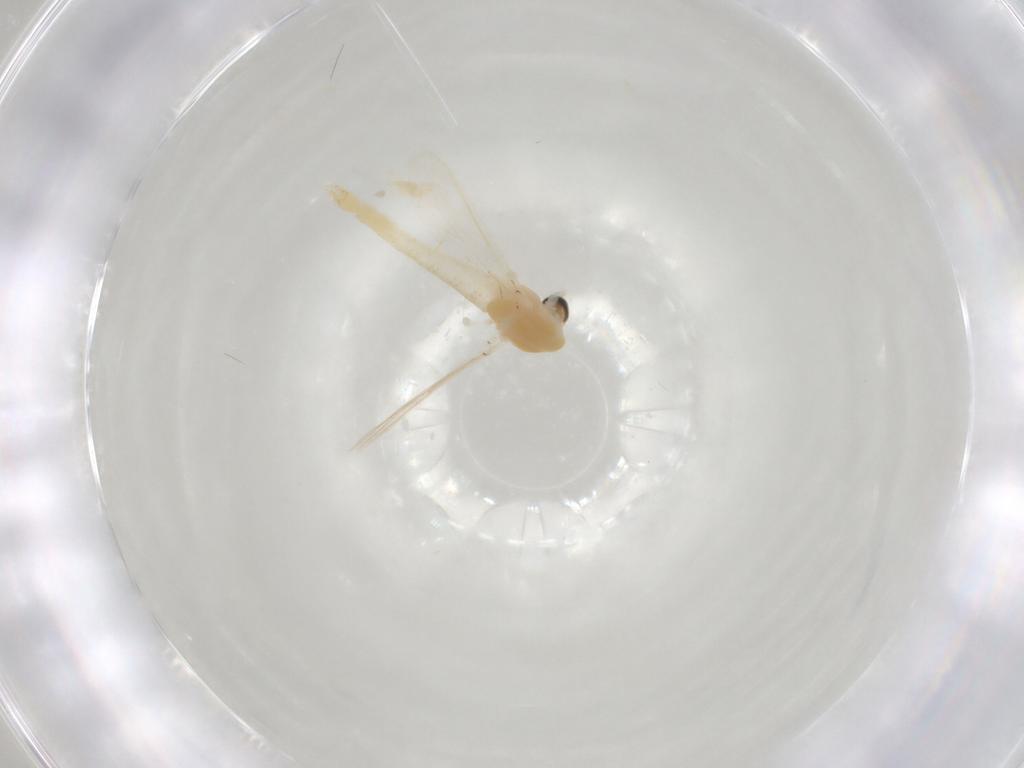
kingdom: Animalia
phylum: Arthropoda
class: Insecta
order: Diptera
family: Chironomidae
